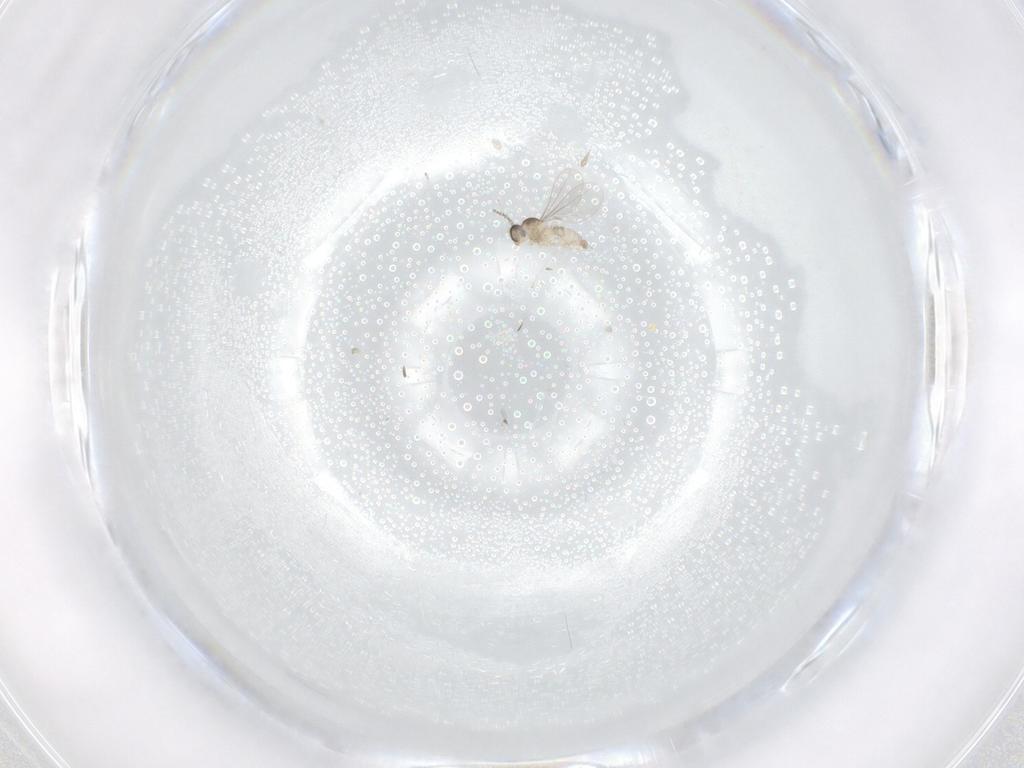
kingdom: Animalia
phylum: Arthropoda
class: Insecta
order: Diptera
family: Cecidomyiidae
